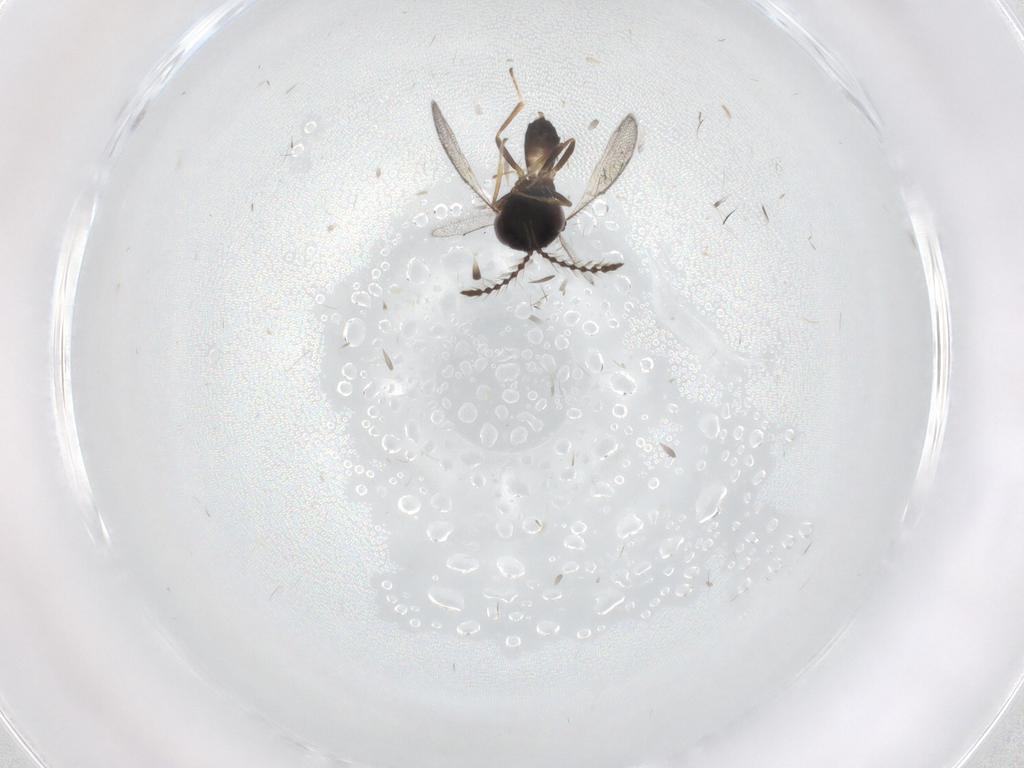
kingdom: Animalia
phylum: Arthropoda
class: Insecta
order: Hymenoptera
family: Pteromalidae
